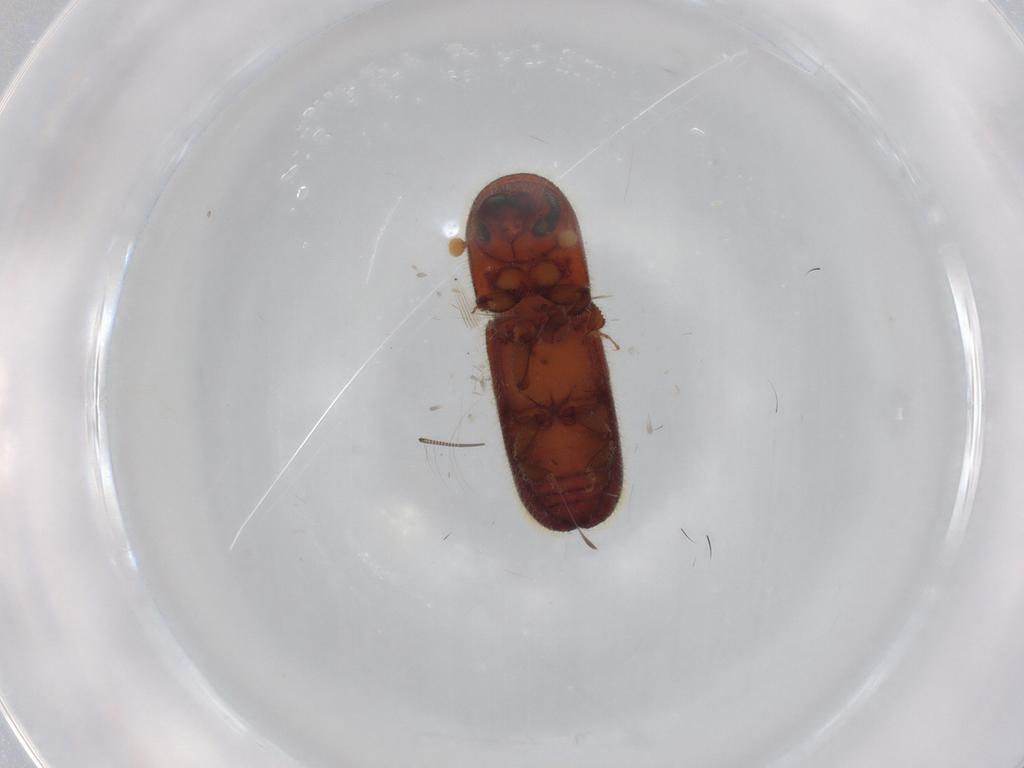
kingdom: Animalia
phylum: Arthropoda
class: Insecta
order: Coleoptera
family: Curculionidae
